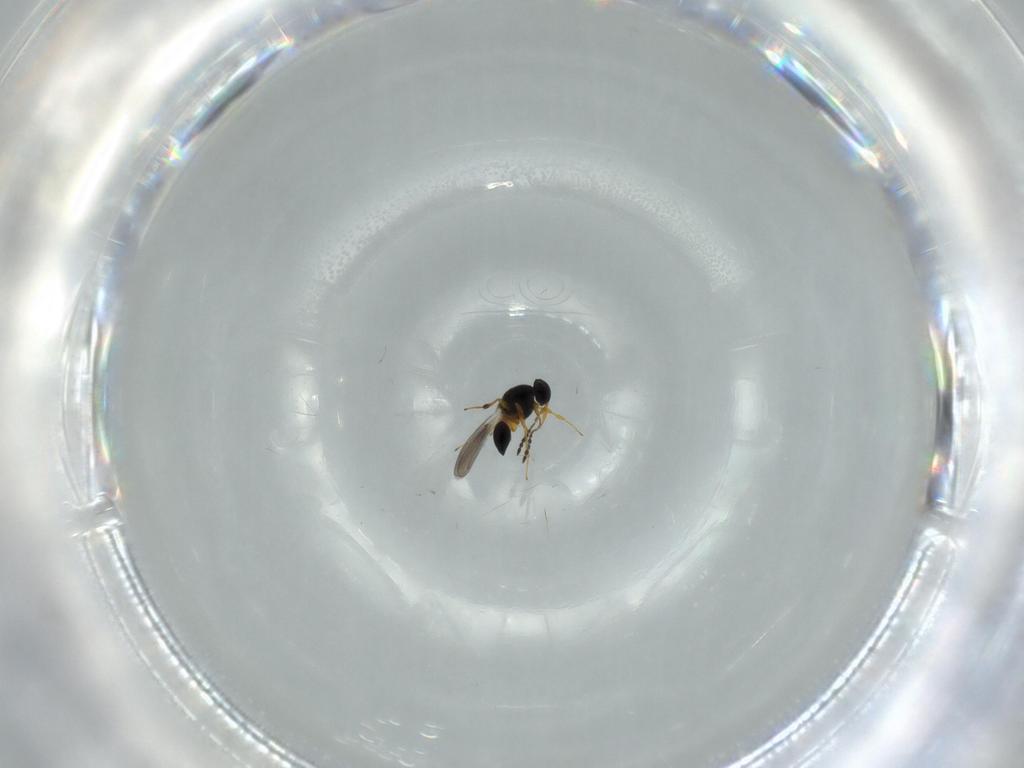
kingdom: Animalia
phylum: Arthropoda
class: Insecta
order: Hymenoptera
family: Platygastridae
